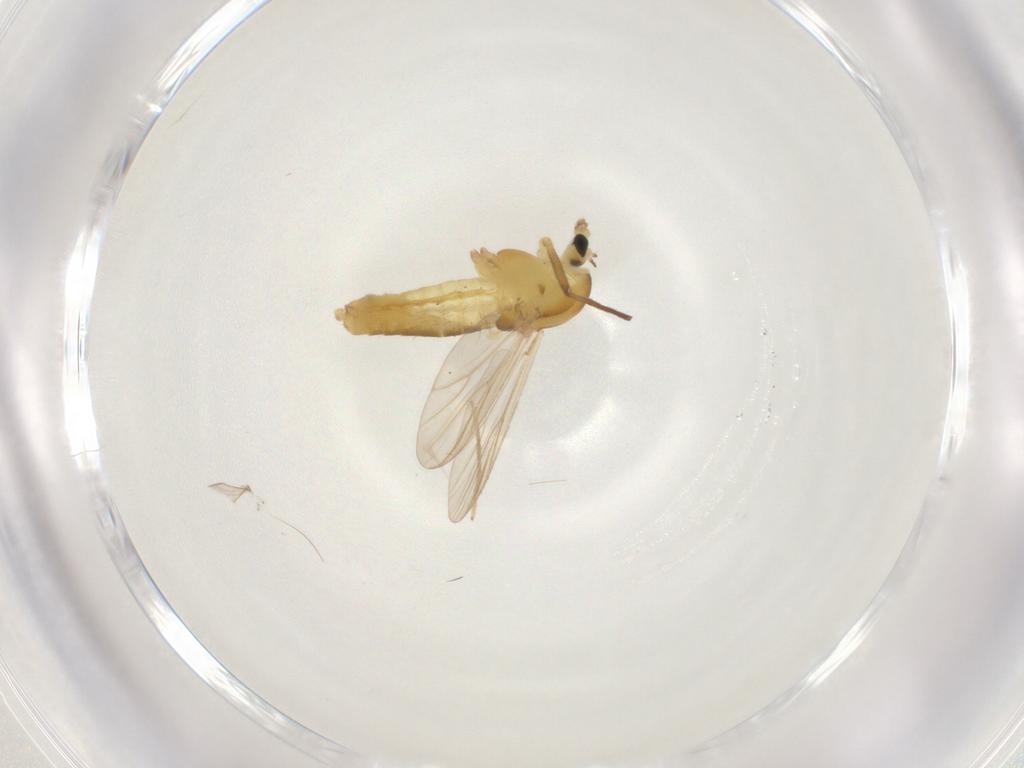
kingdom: Animalia
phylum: Arthropoda
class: Insecta
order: Diptera
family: Chironomidae
